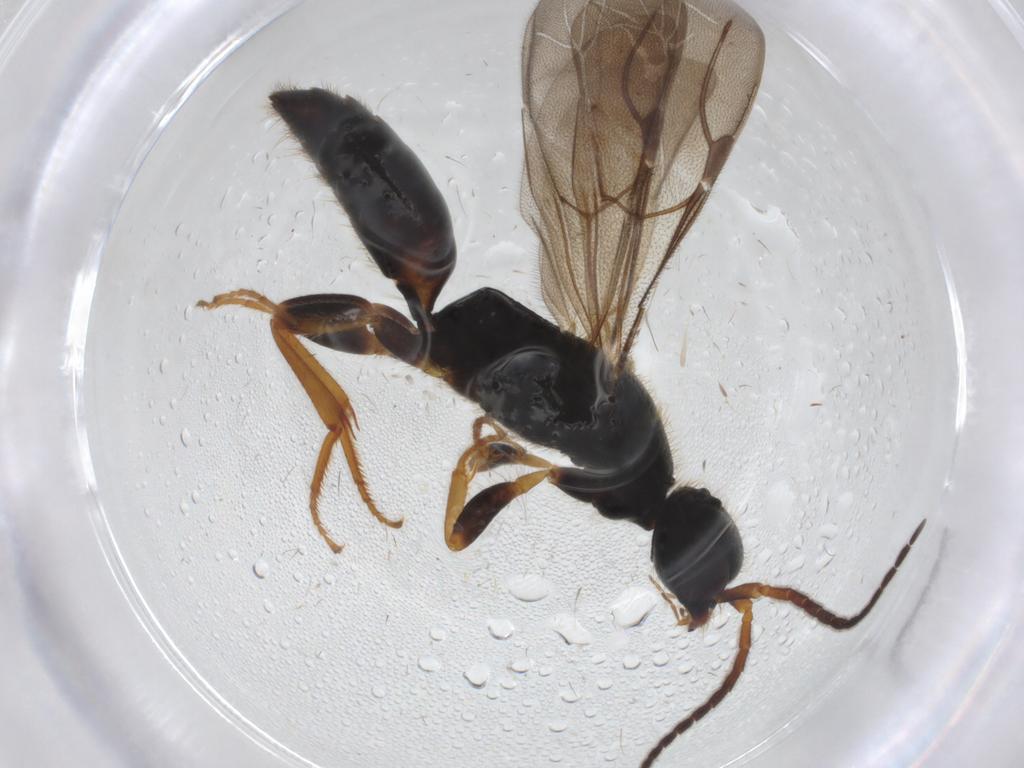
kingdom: Animalia
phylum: Arthropoda
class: Insecta
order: Hymenoptera
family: Bethylidae
